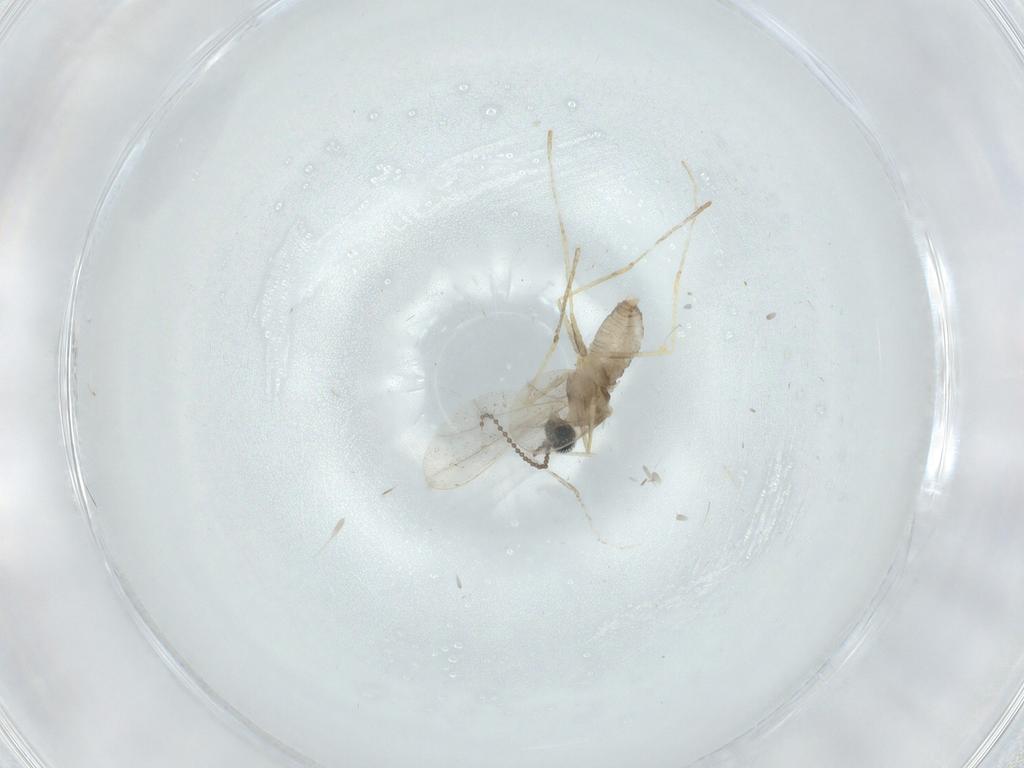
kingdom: Animalia
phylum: Arthropoda
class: Insecta
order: Diptera
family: Cecidomyiidae
